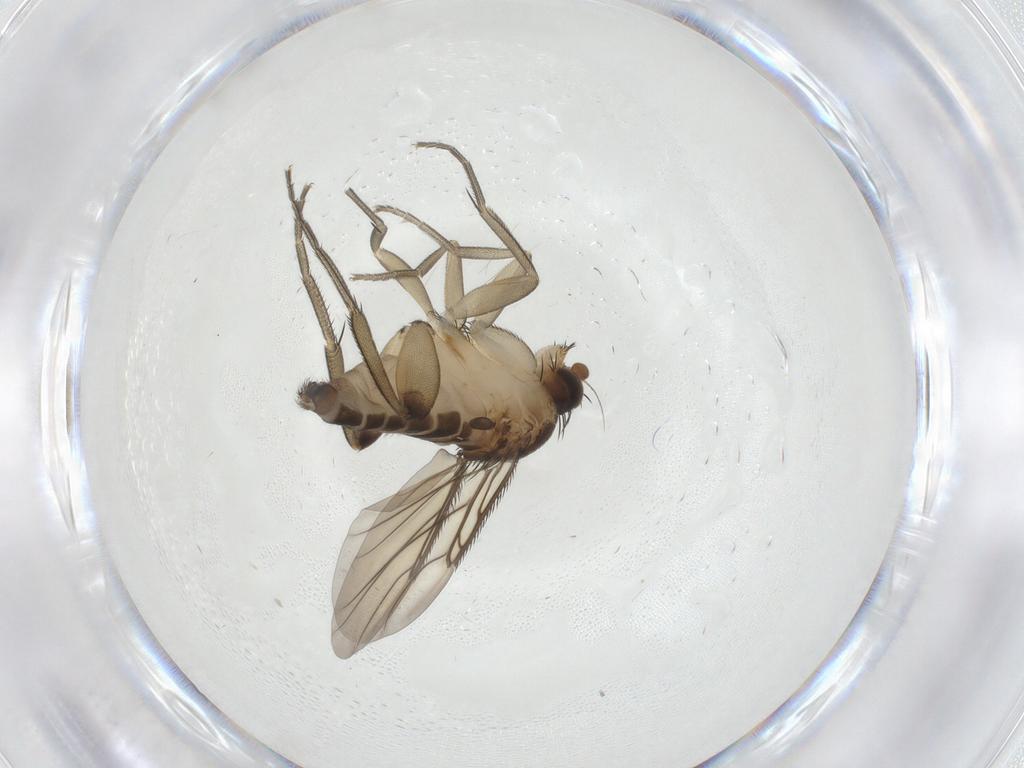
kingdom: Animalia
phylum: Arthropoda
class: Insecta
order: Diptera
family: Phoridae
